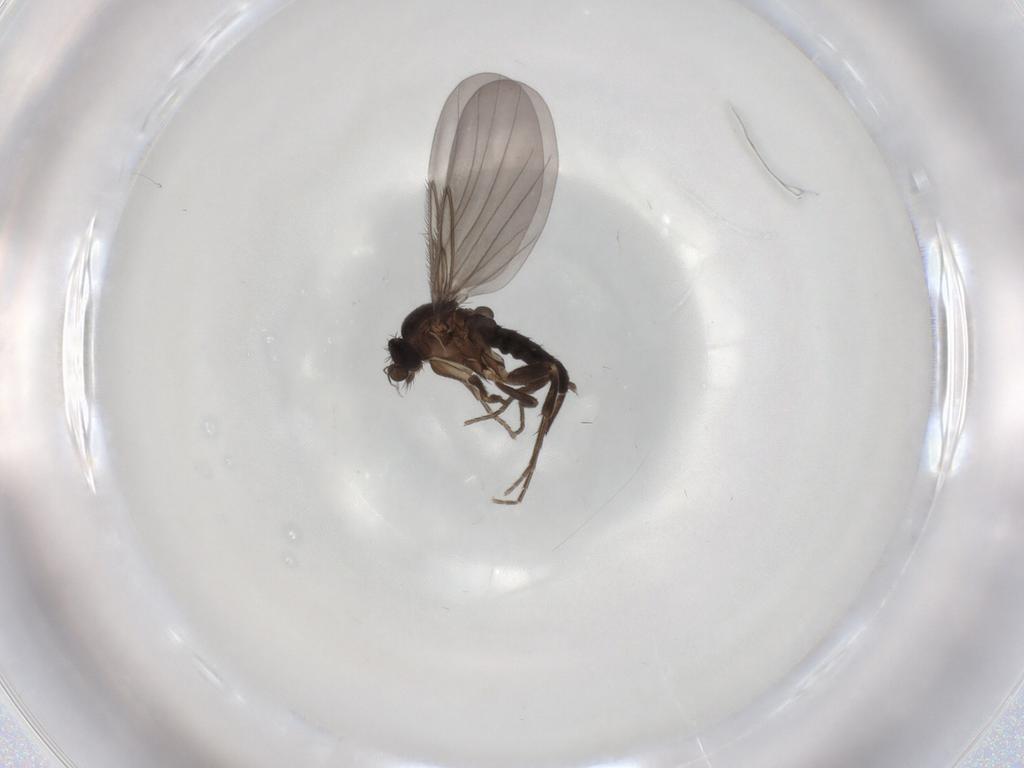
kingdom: Animalia
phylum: Arthropoda
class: Insecta
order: Diptera
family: Phoridae
